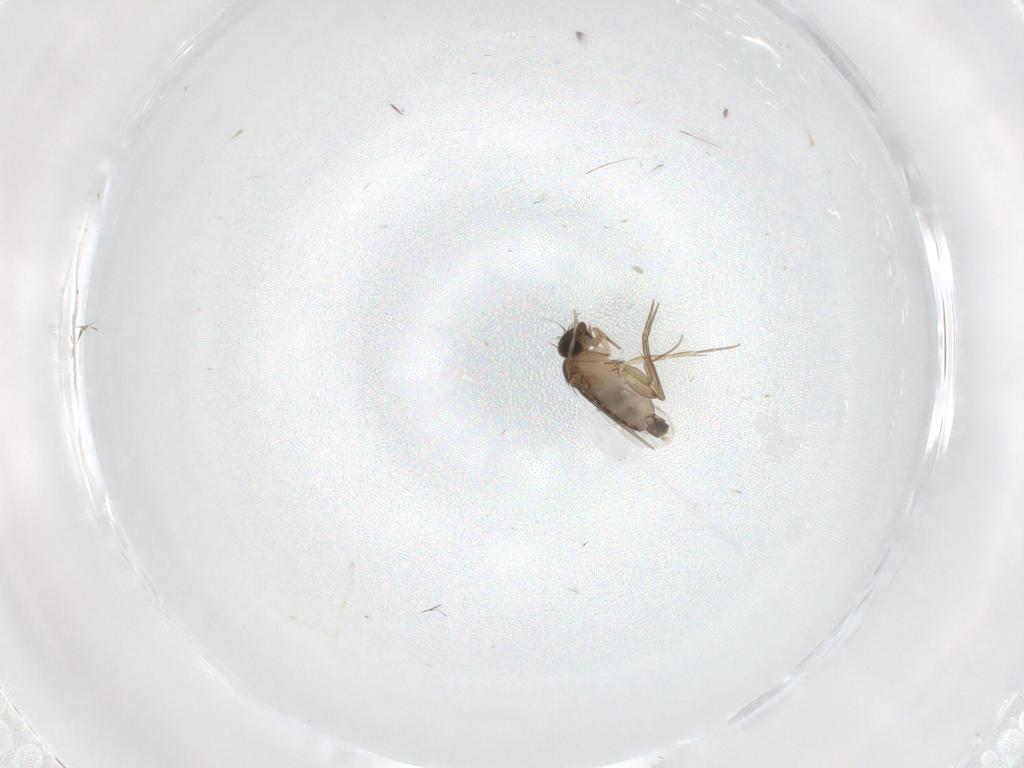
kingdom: Animalia
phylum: Arthropoda
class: Insecta
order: Diptera
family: Phoridae
